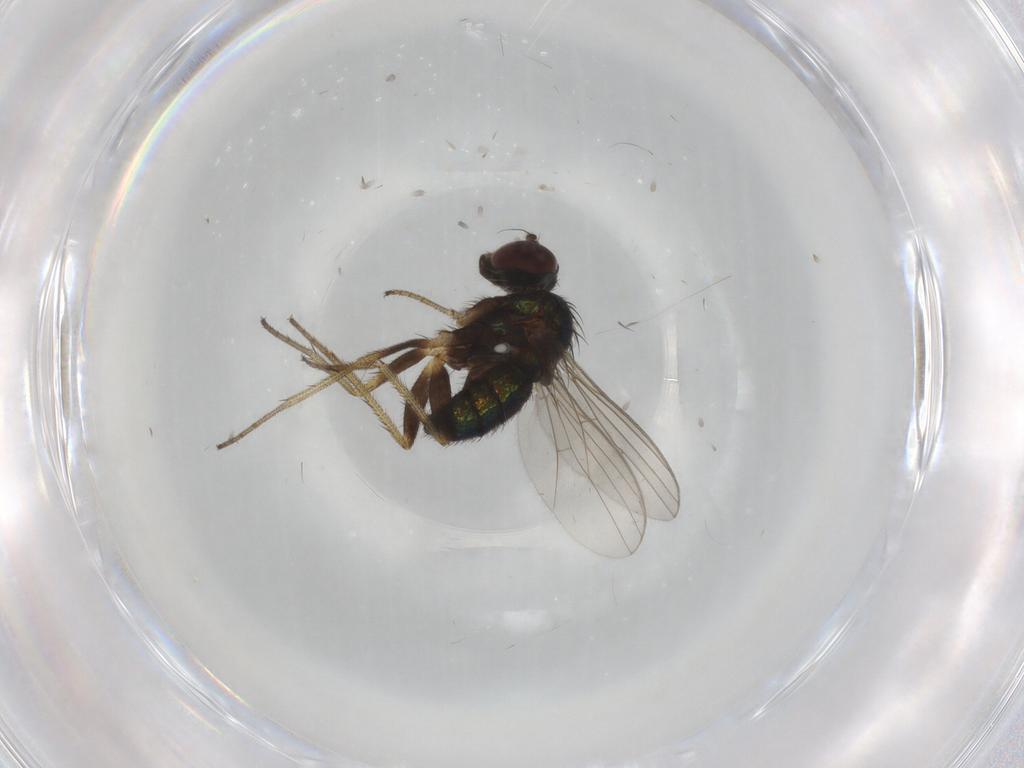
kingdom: Animalia
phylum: Arthropoda
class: Insecta
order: Diptera
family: Dolichopodidae
